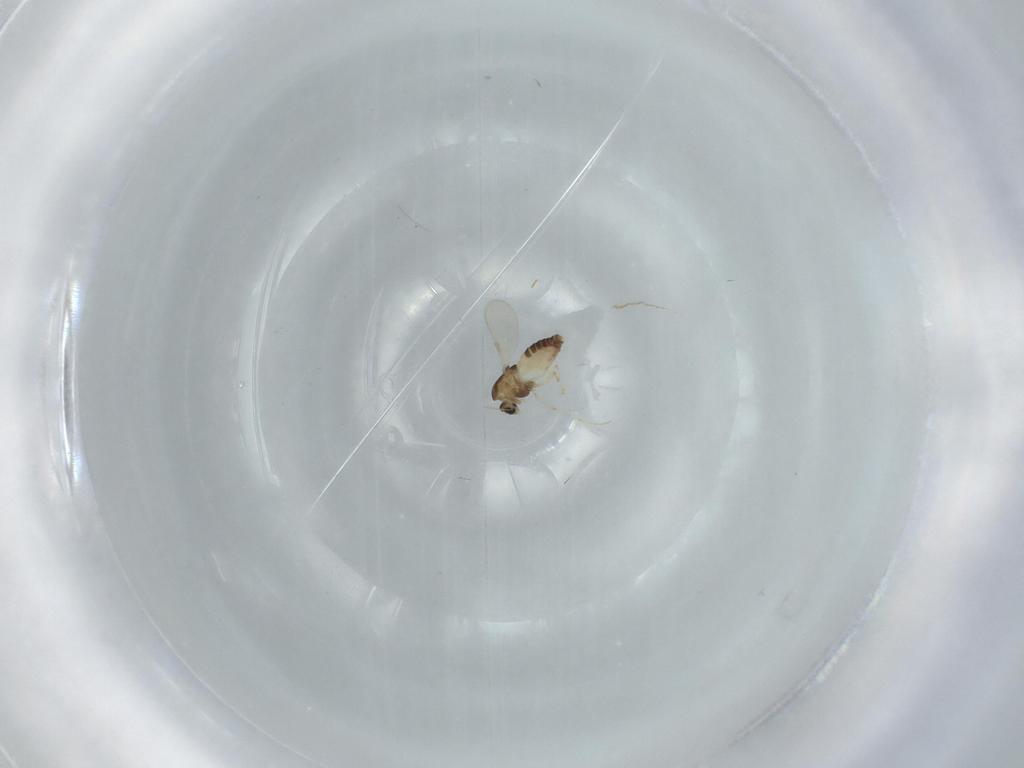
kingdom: Animalia
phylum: Arthropoda
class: Insecta
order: Diptera
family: Chironomidae
